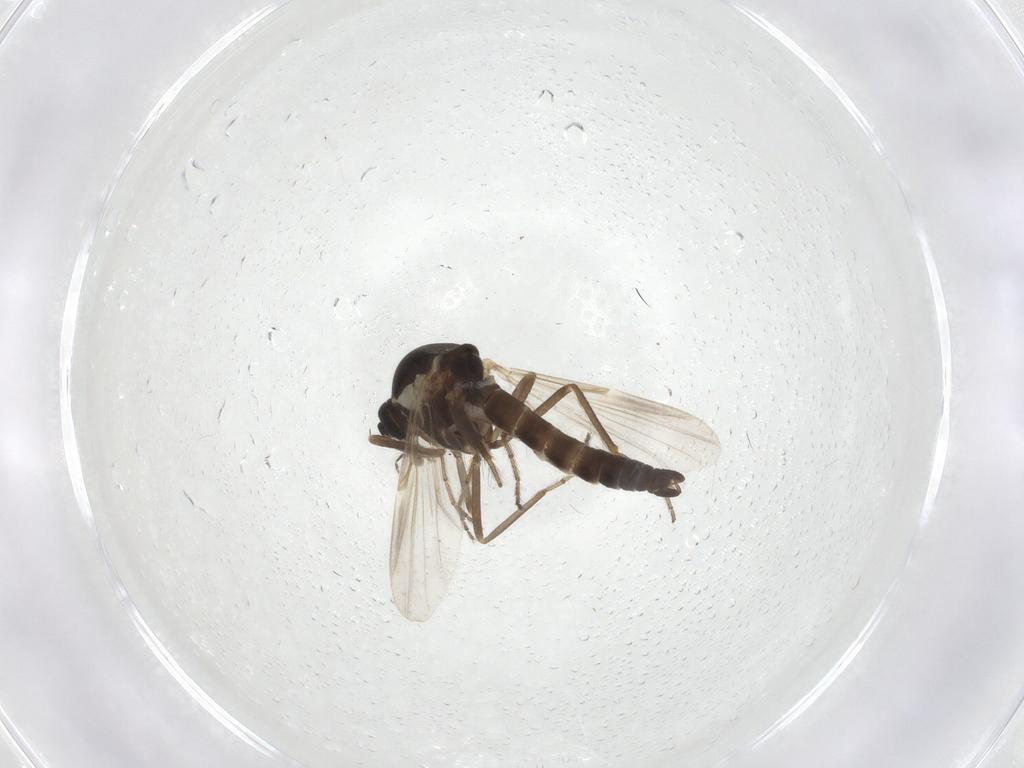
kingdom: Animalia
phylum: Arthropoda
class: Insecta
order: Diptera
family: Ceratopogonidae
